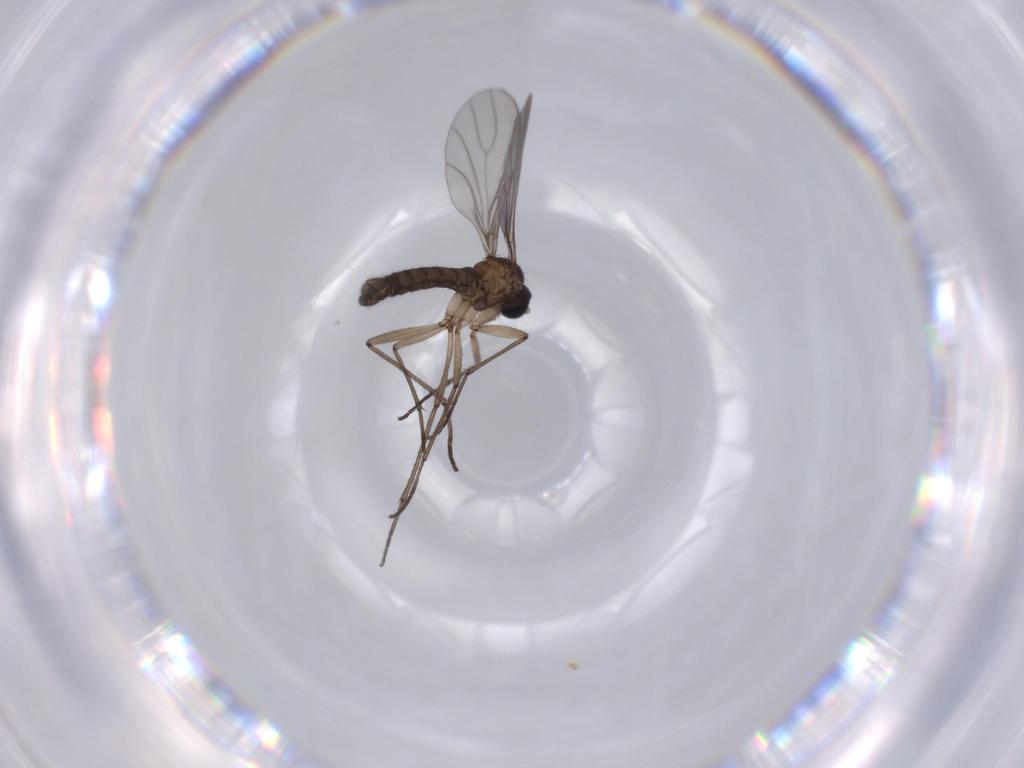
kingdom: Animalia
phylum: Arthropoda
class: Insecta
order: Diptera
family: Sciaridae
